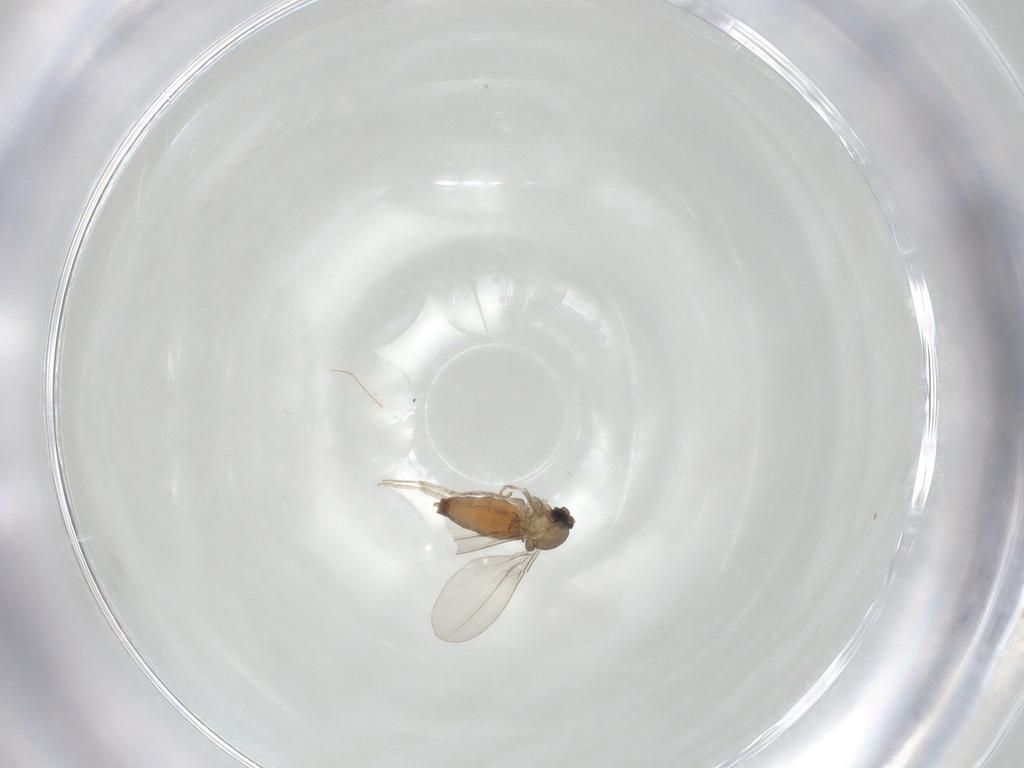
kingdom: Animalia
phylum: Arthropoda
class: Insecta
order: Diptera
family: Cecidomyiidae
